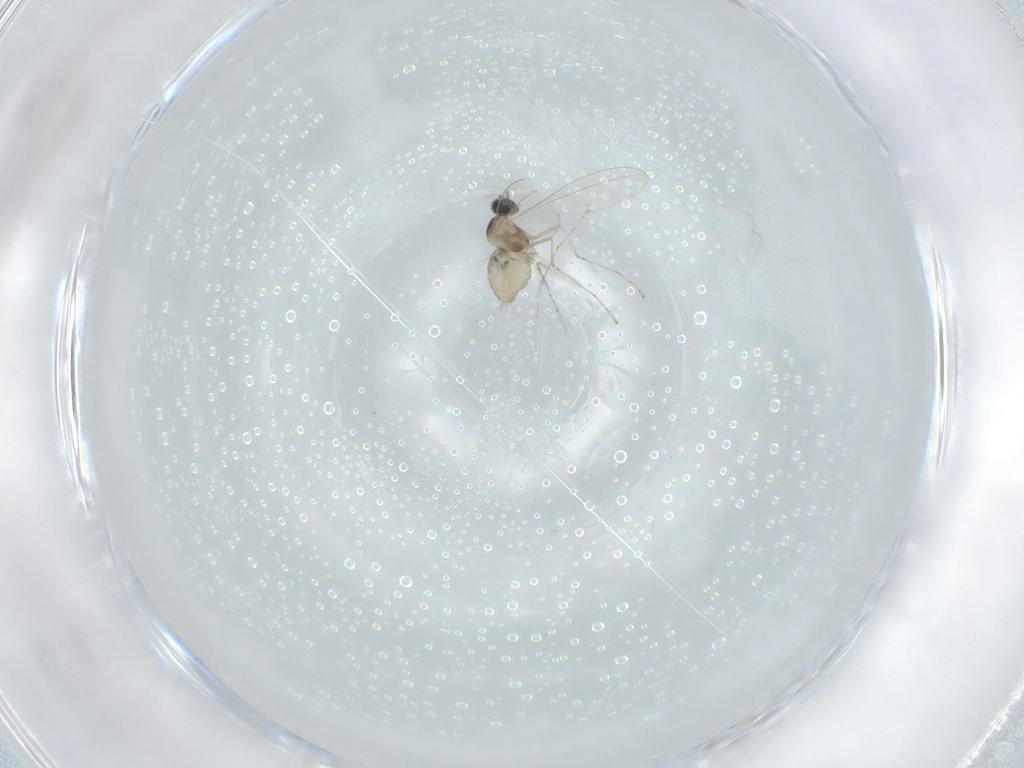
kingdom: Animalia
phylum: Arthropoda
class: Insecta
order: Diptera
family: Cecidomyiidae
